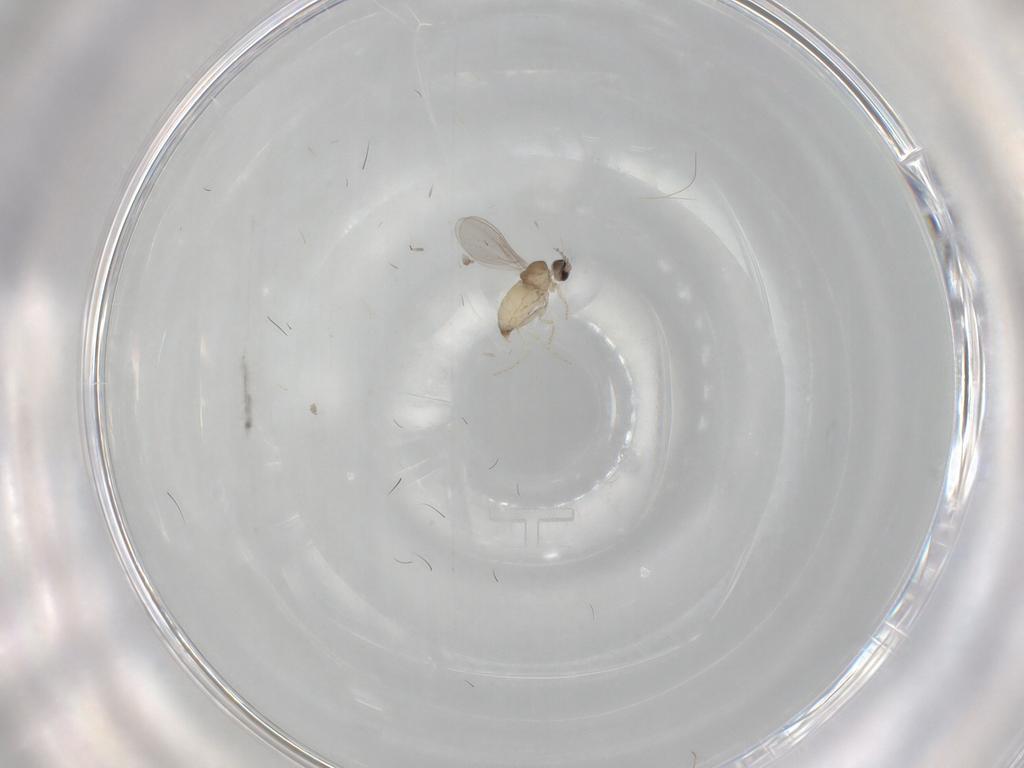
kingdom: Animalia
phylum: Arthropoda
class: Insecta
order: Diptera
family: Cecidomyiidae
